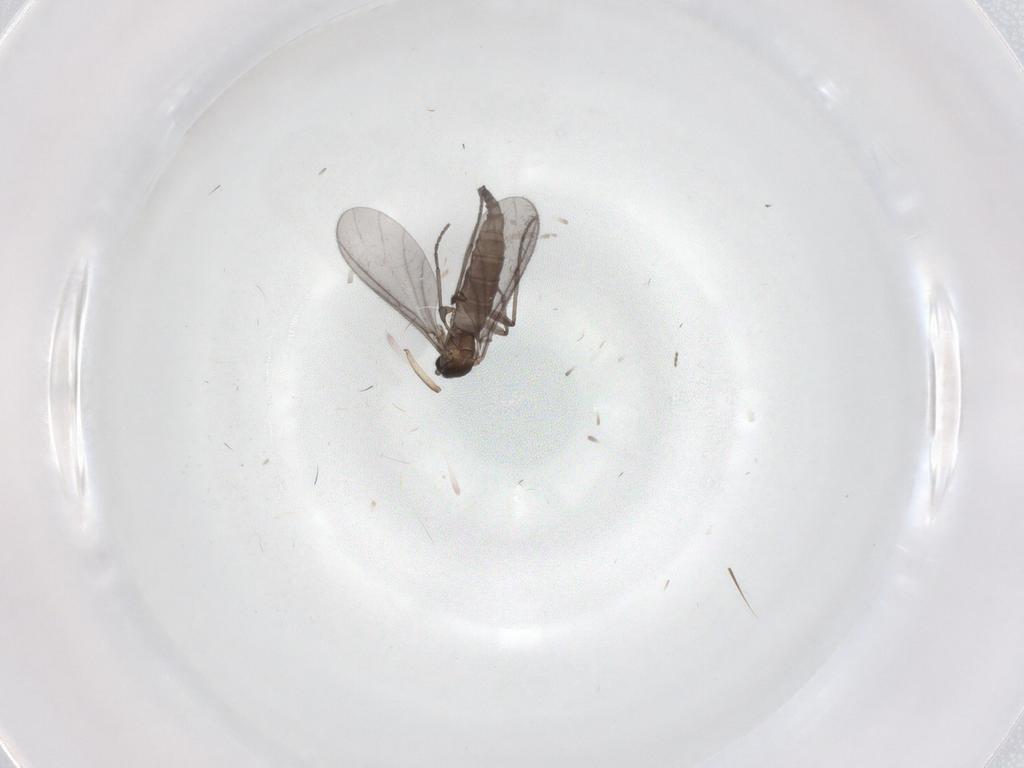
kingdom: Animalia
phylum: Arthropoda
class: Insecta
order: Diptera
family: Sciaridae
